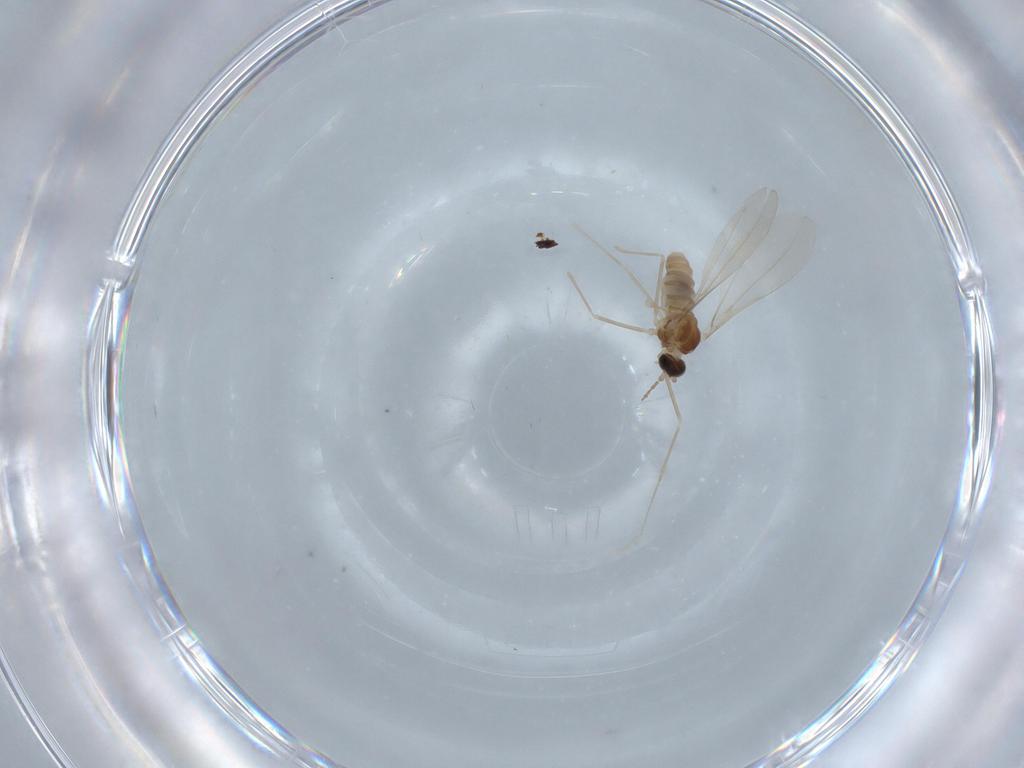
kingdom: Animalia
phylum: Arthropoda
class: Insecta
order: Diptera
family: Cecidomyiidae
